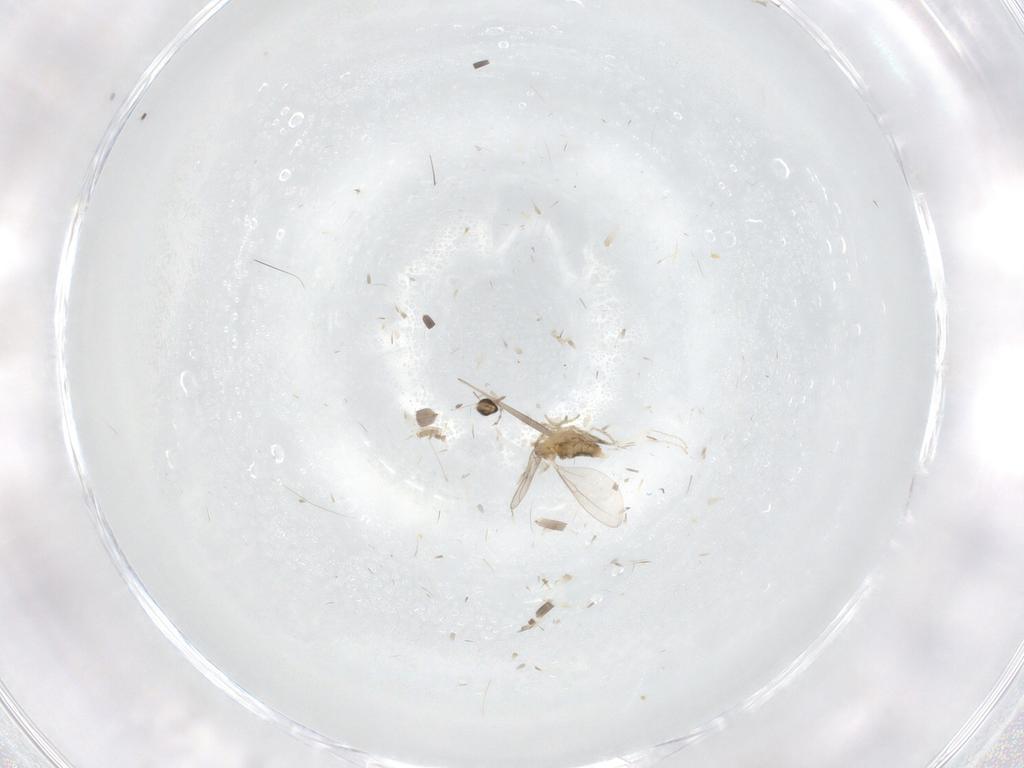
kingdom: Animalia
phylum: Arthropoda
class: Insecta
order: Diptera
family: Cecidomyiidae
